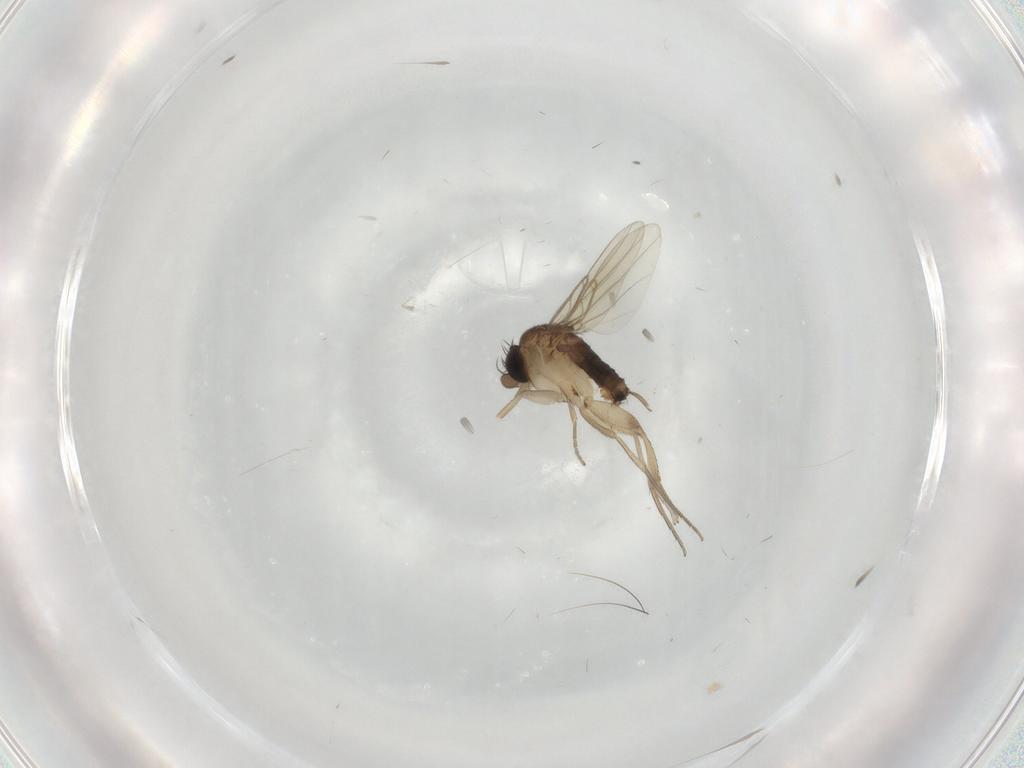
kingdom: Animalia
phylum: Arthropoda
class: Insecta
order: Diptera
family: Phoridae
